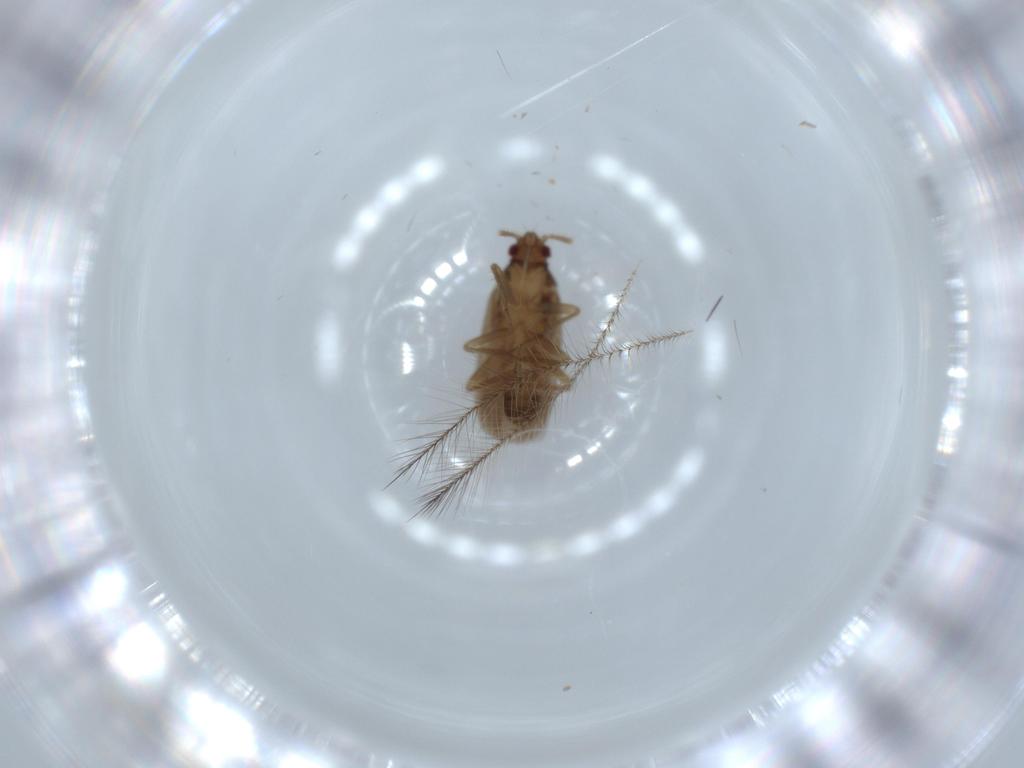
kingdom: Animalia
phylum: Arthropoda
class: Insecta
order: Hemiptera
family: Ceratocombidae
